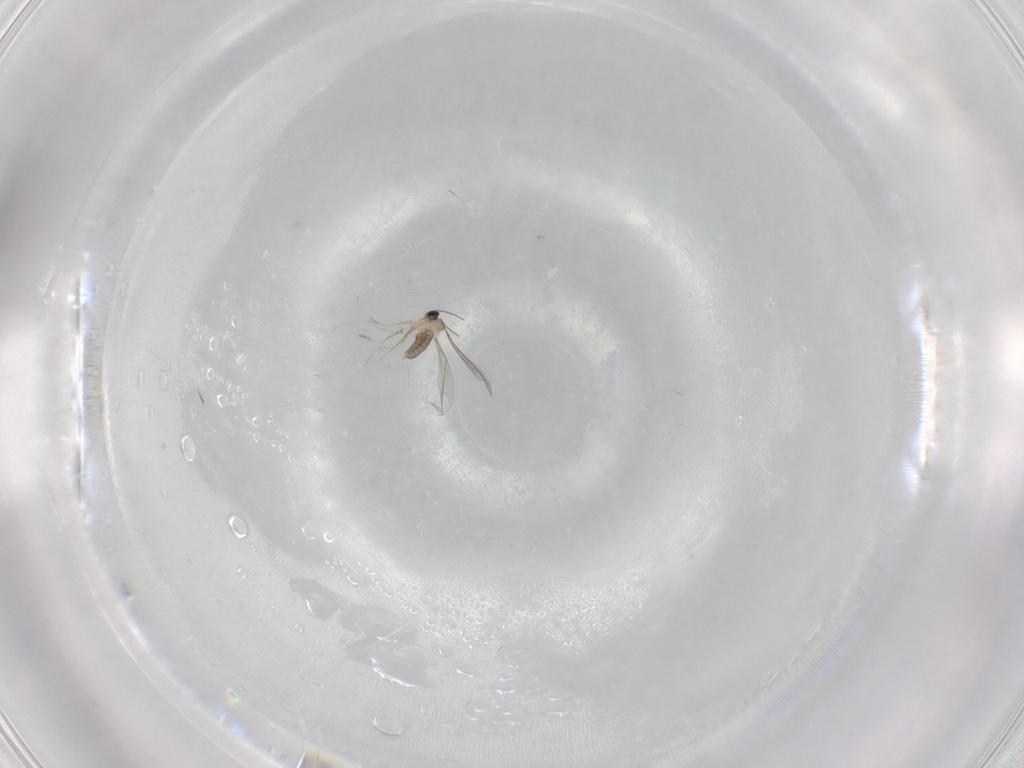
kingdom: Animalia
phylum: Arthropoda
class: Insecta
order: Diptera
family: Cecidomyiidae
